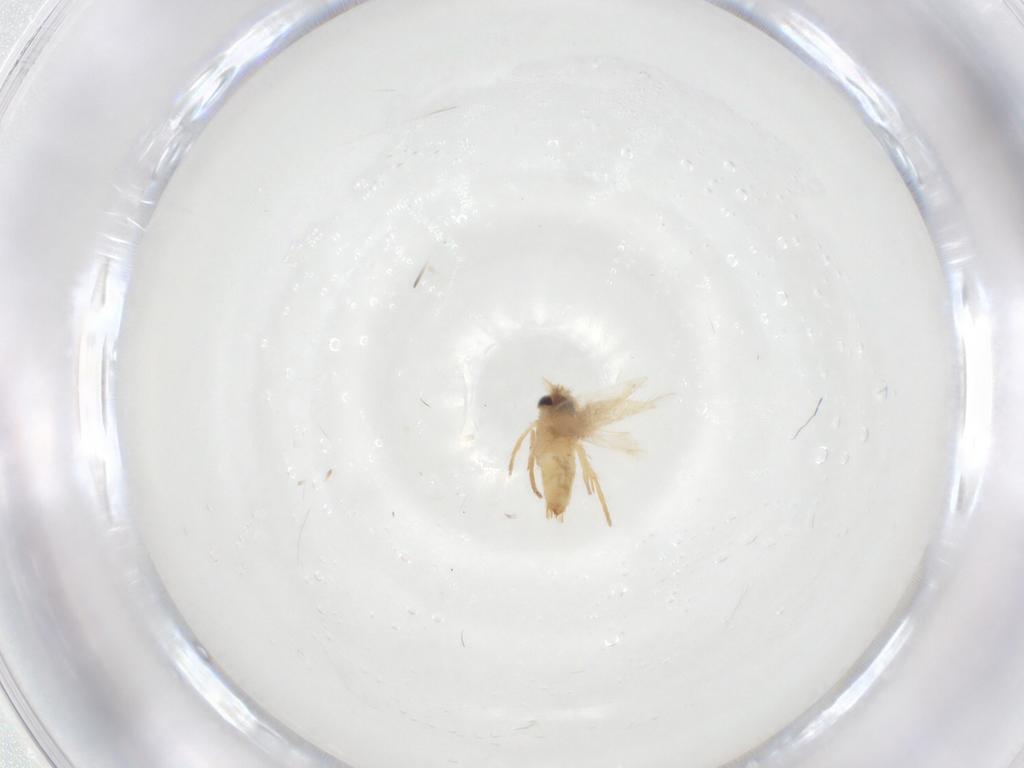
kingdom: Animalia
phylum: Arthropoda
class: Insecta
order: Lepidoptera
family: Crambidae
